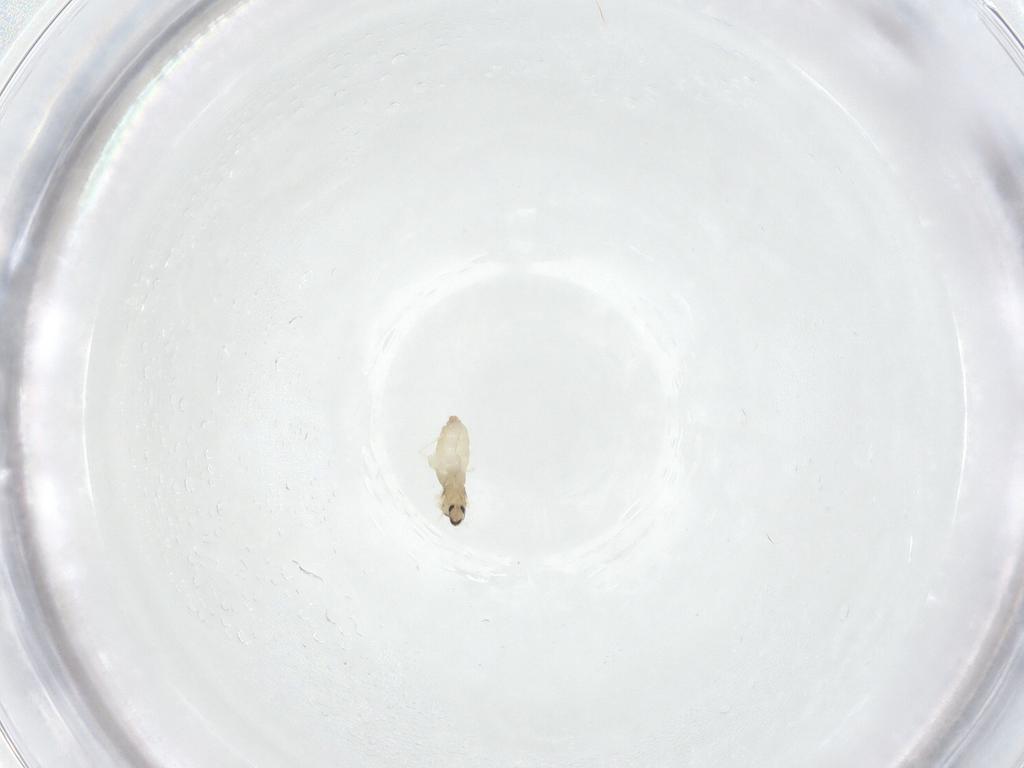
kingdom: Animalia
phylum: Arthropoda
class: Insecta
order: Diptera
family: Cecidomyiidae
